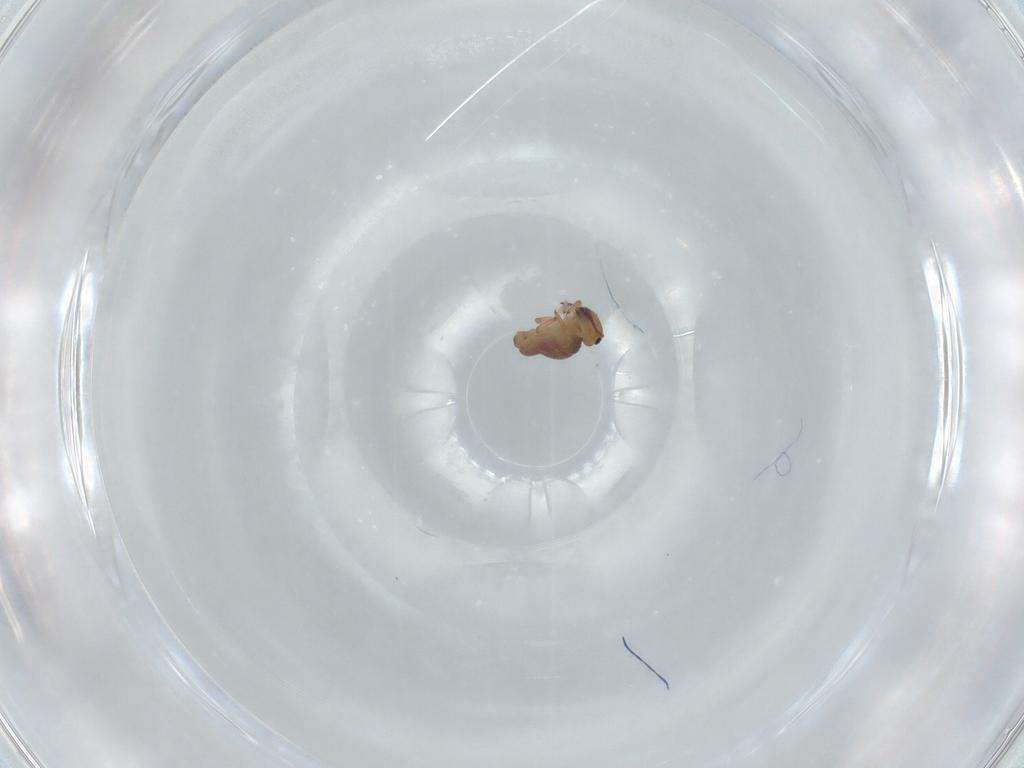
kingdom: Animalia
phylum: Arthropoda
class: Collembola
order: Symphypleona
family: Sminthurididae
